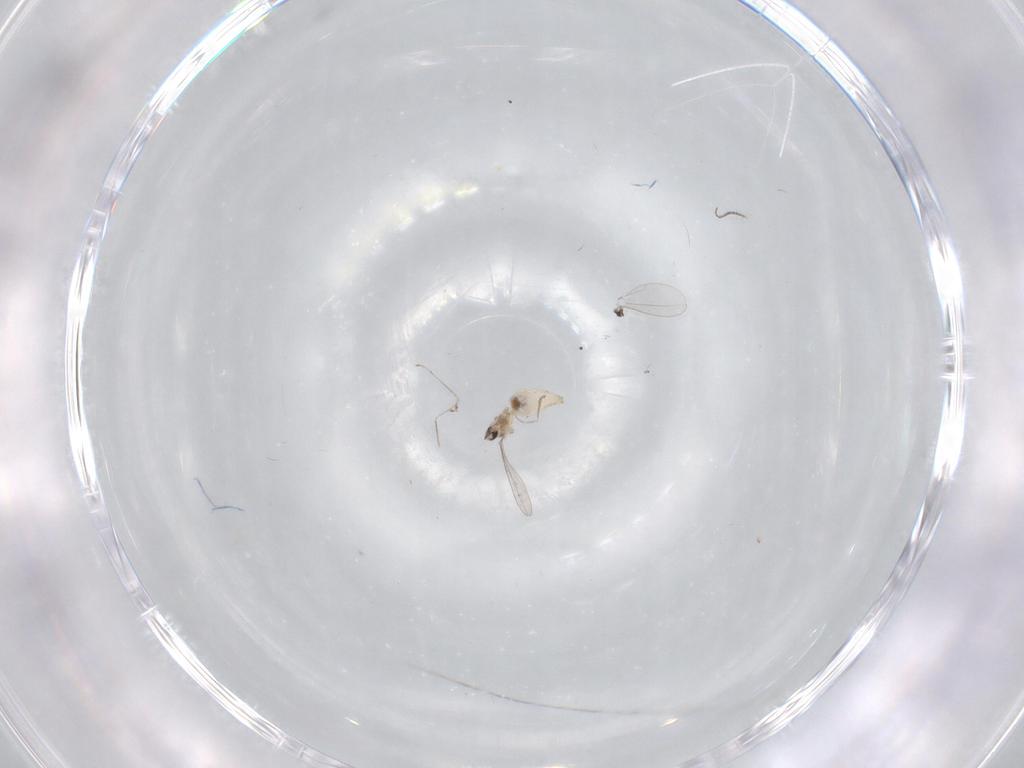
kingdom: Animalia
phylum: Arthropoda
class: Insecta
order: Diptera
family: Cecidomyiidae
